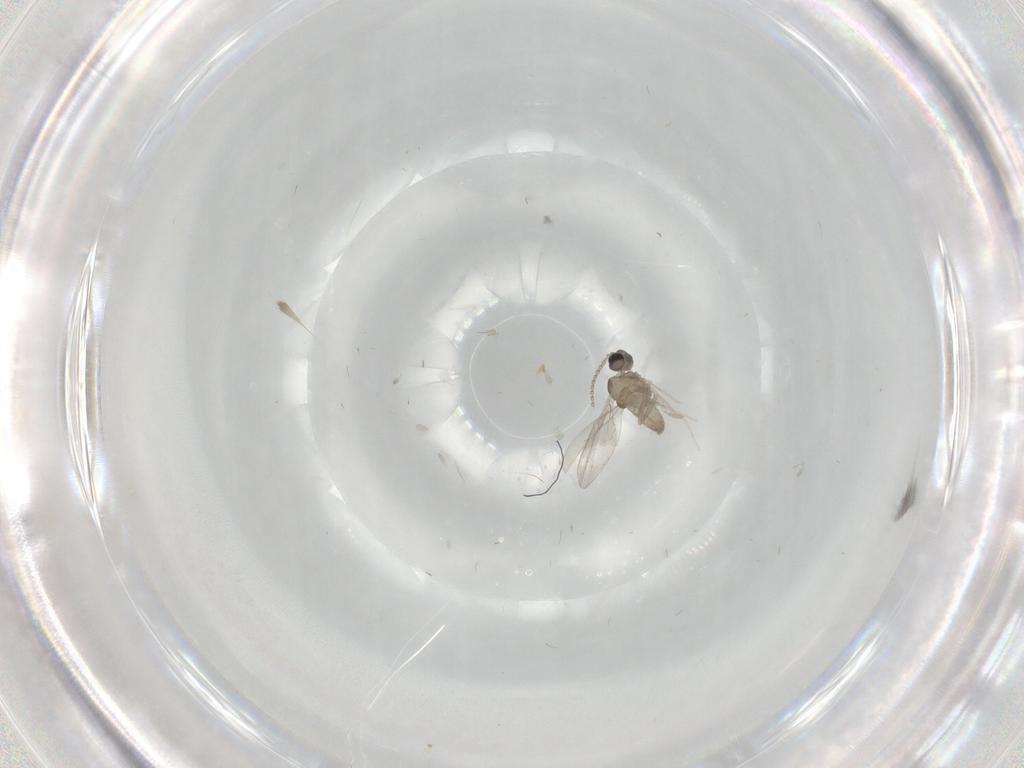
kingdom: Animalia
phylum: Arthropoda
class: Insecta
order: Diptera
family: Cecidomyiidae
